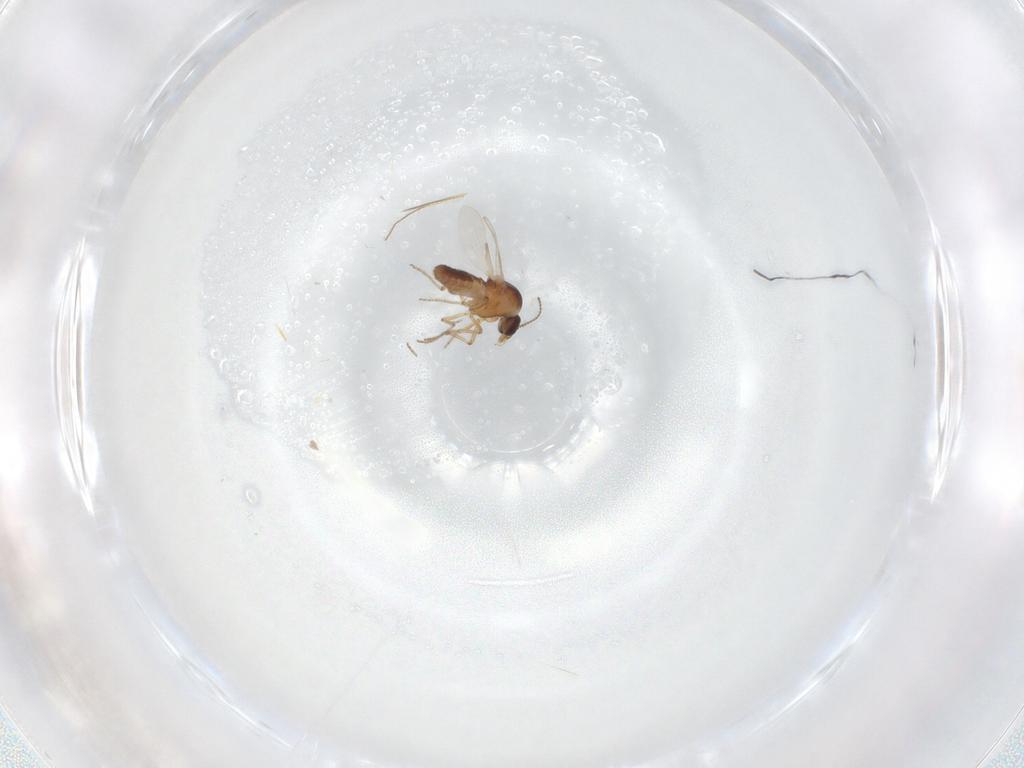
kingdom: Animalia
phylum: Arthropoda
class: Insecta
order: Diptera
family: Ceratopogonidae
